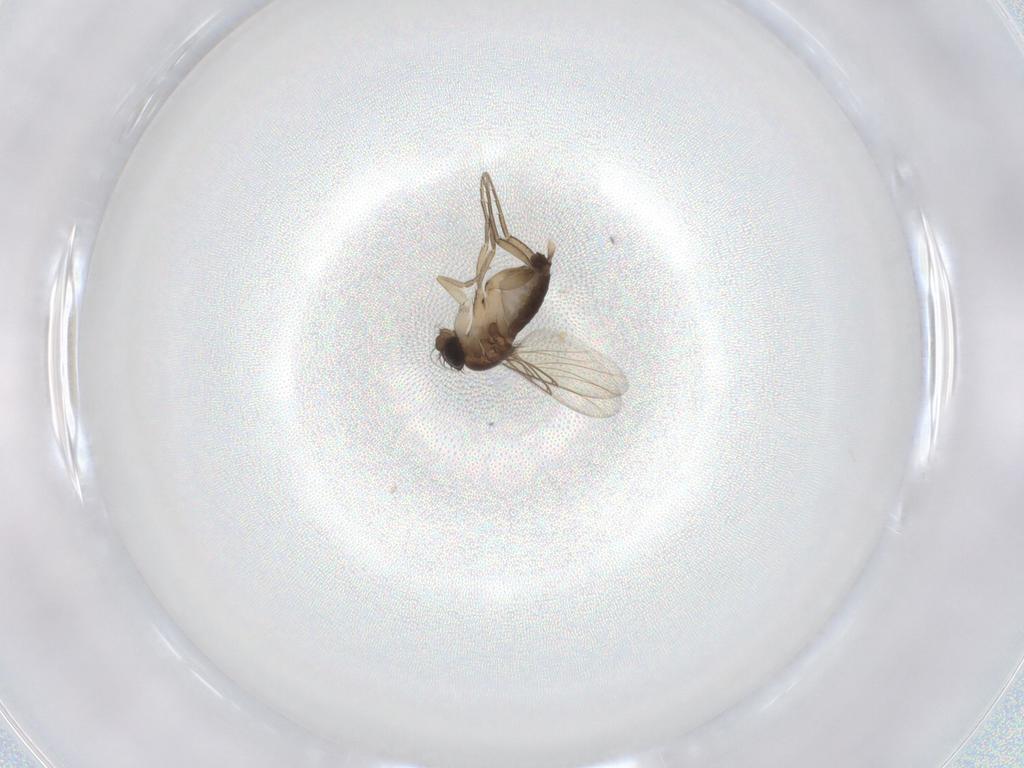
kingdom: Animalia
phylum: Arthropoda
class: Insecta
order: Diptera
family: Phoridae
